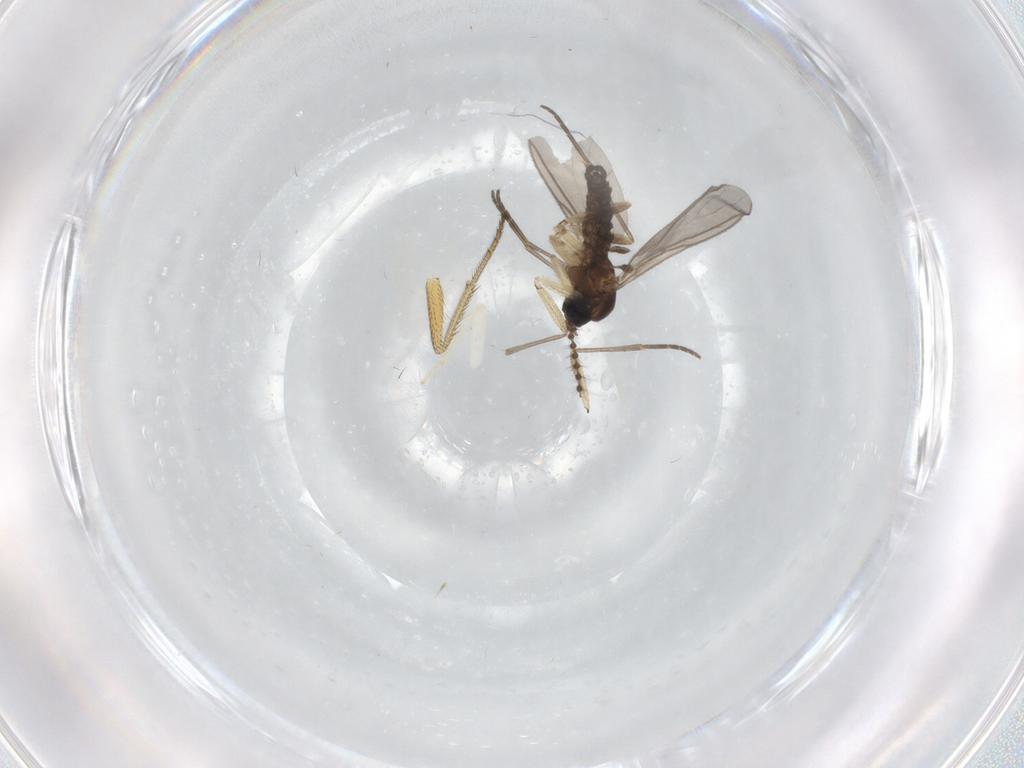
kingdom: Animalia
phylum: Arthropoda
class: Insecta
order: Diptera
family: Sciaridae
